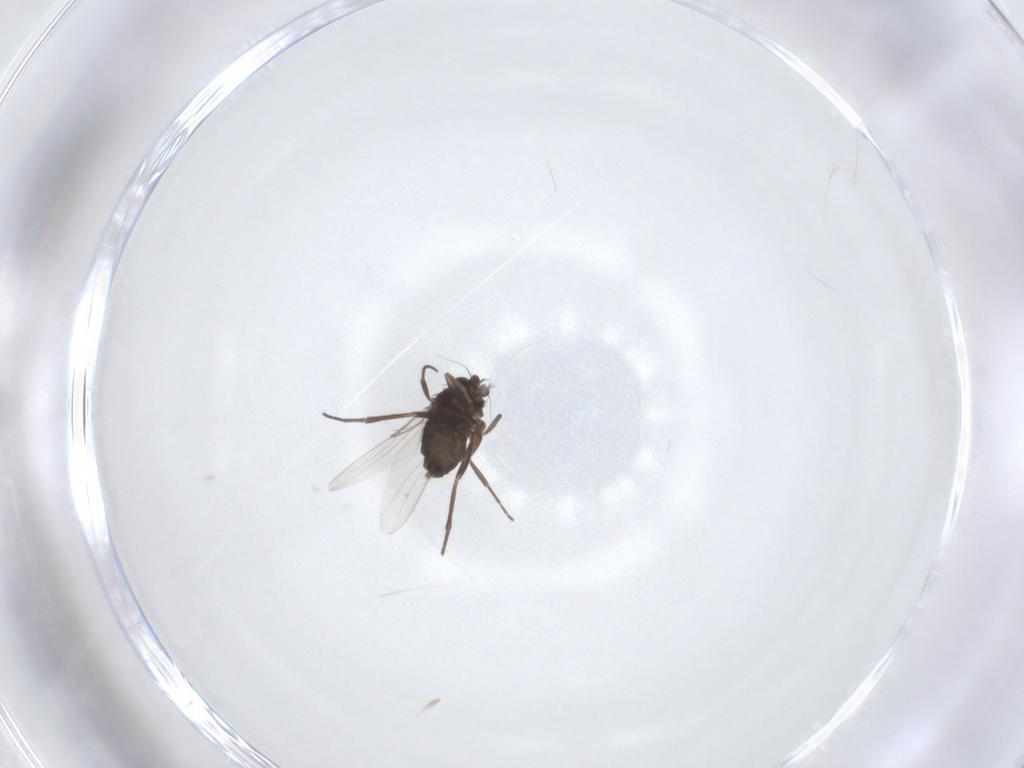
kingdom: Animalia
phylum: Arthropoda
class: Insecta
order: Diptera
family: Phoridae
